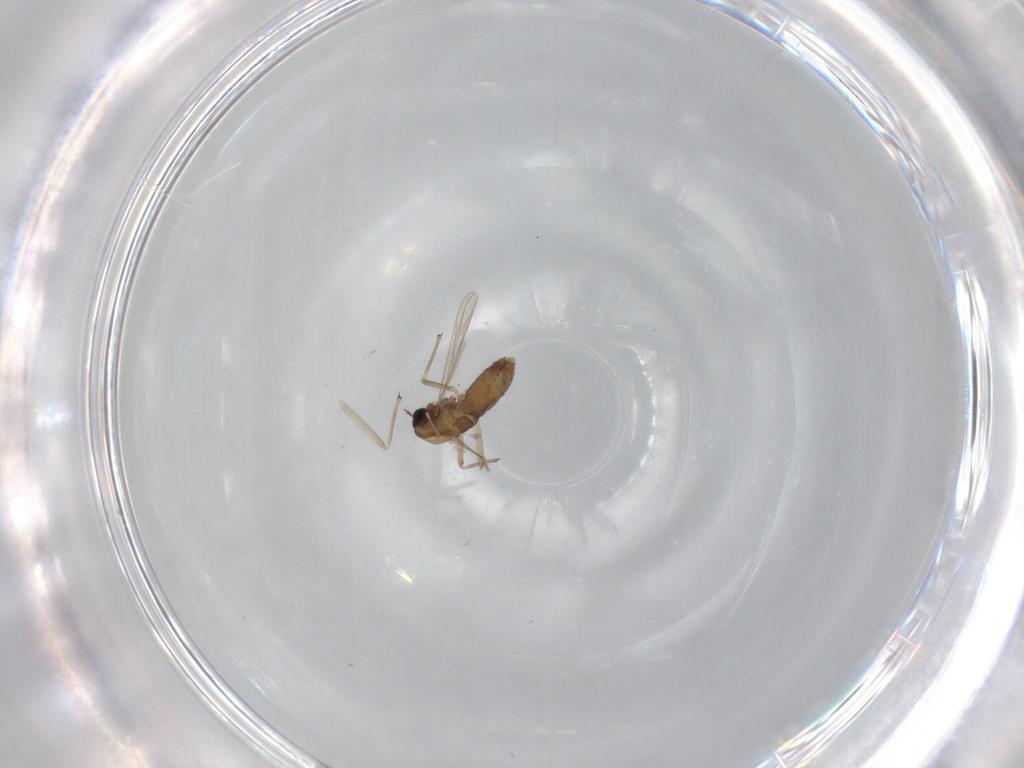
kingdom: Animalia
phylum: Arthropoda
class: Insecta
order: Diptera
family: Chironomidae
